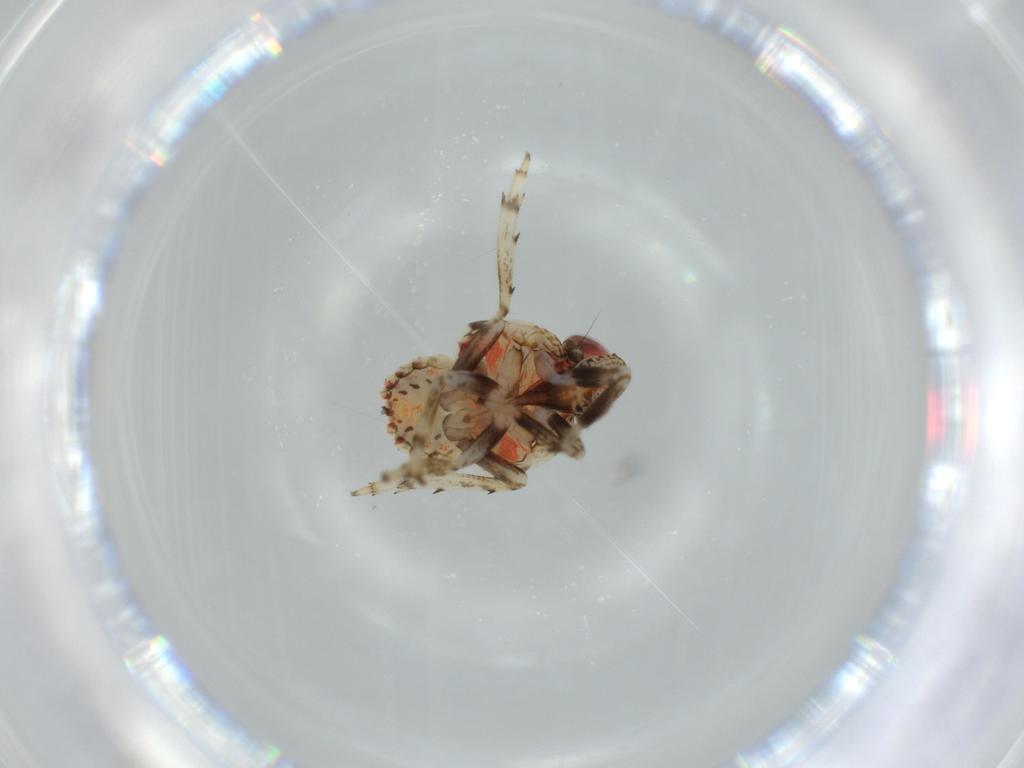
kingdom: Animalia
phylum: Arthropoda
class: Insecta
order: Hemiptera
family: Issidae
